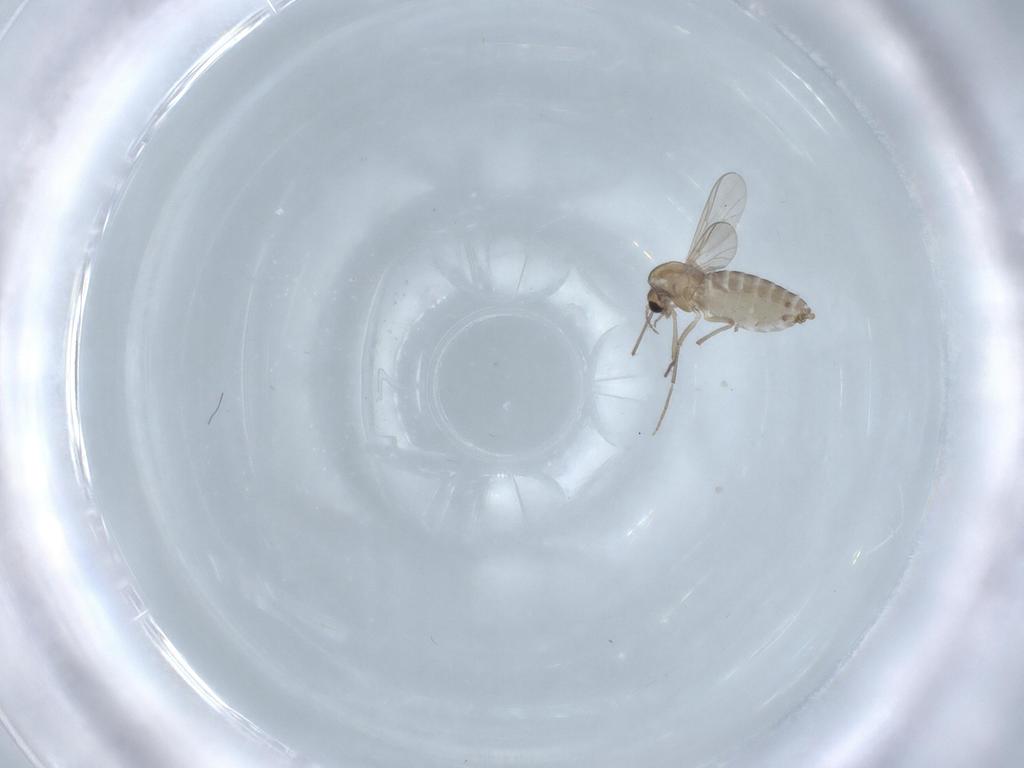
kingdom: Animalia
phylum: Arthropoda
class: Insecta
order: Diptera
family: Chironomidae
